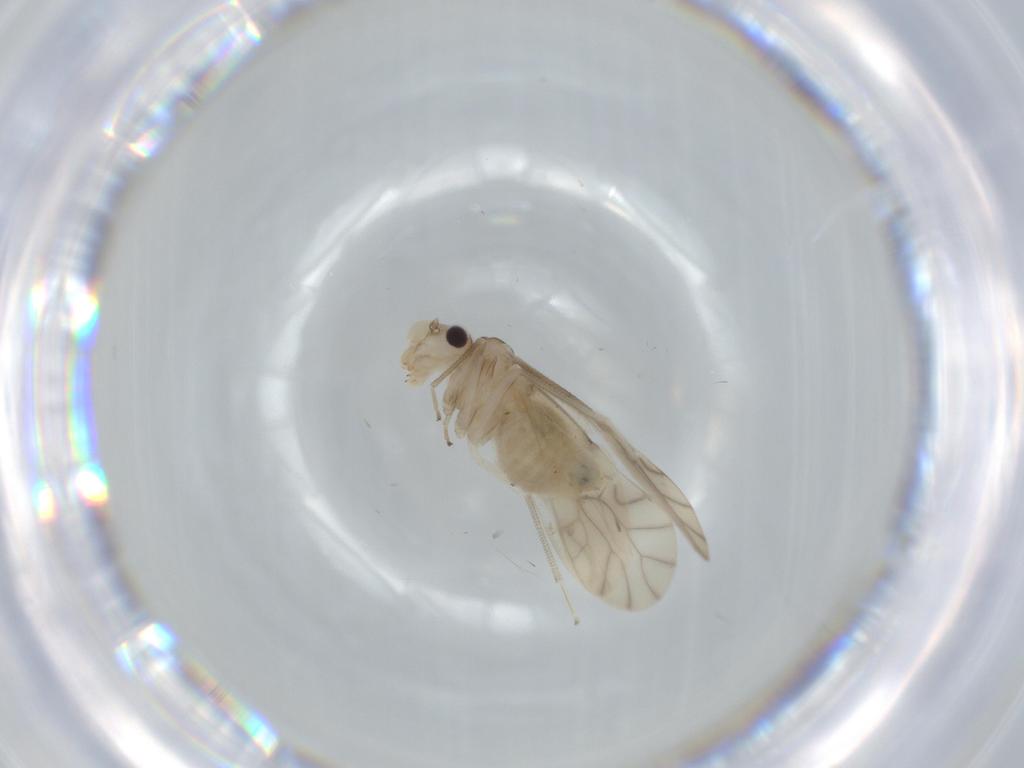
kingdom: Animalia
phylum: Arthropoda
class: Insecta
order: Psocodea
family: Caeciliusidae
